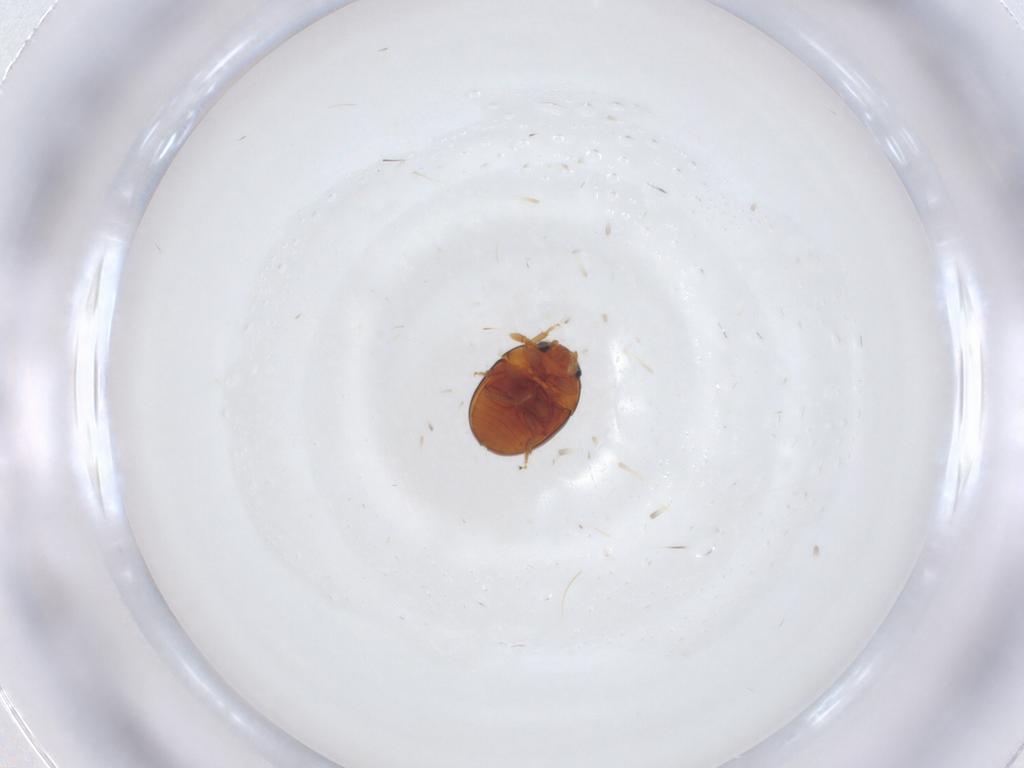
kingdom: Animalia
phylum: Arthropoda
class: Insecta
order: Coleoptera
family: Phalacridae
